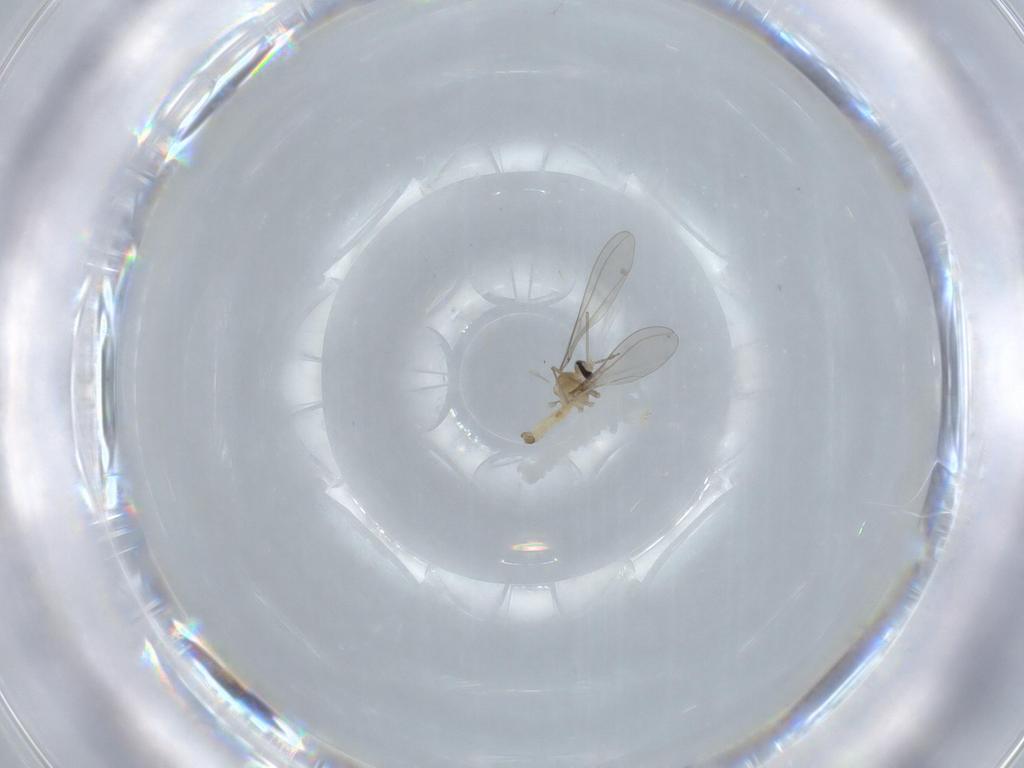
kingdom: Animalia
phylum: Arthropoda
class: Insecta
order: Diptera
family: Cecidomyiidae
